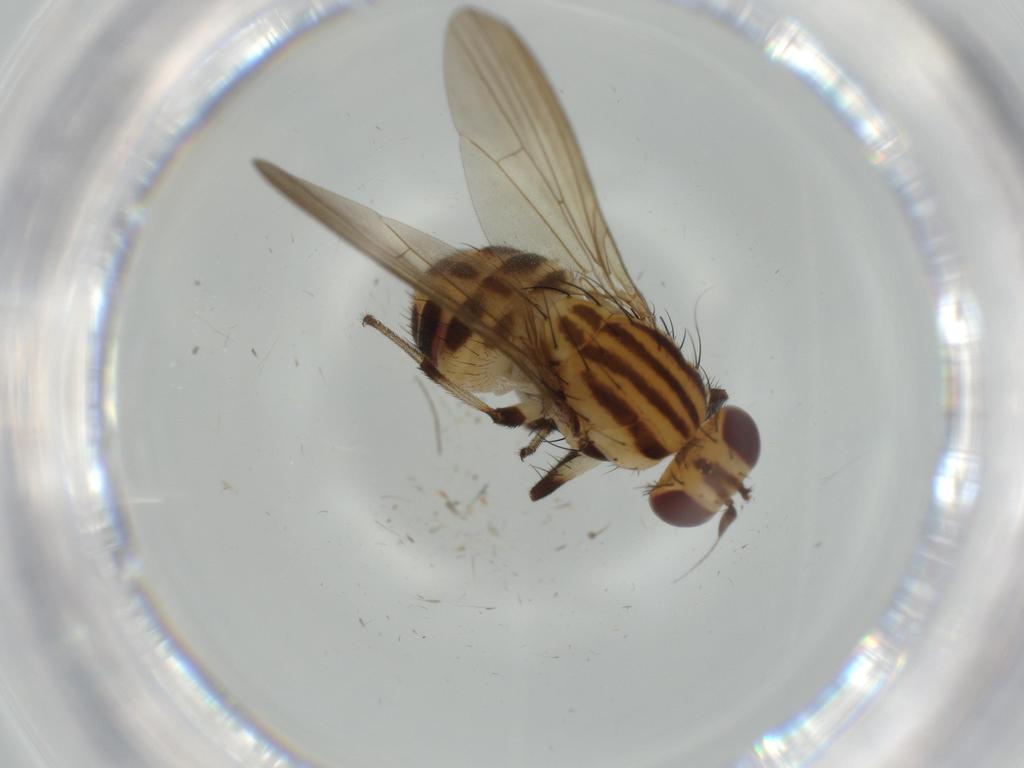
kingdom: Animalia
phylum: Arthropoda
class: Insecta
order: Diptera
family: Lauxaniidae
